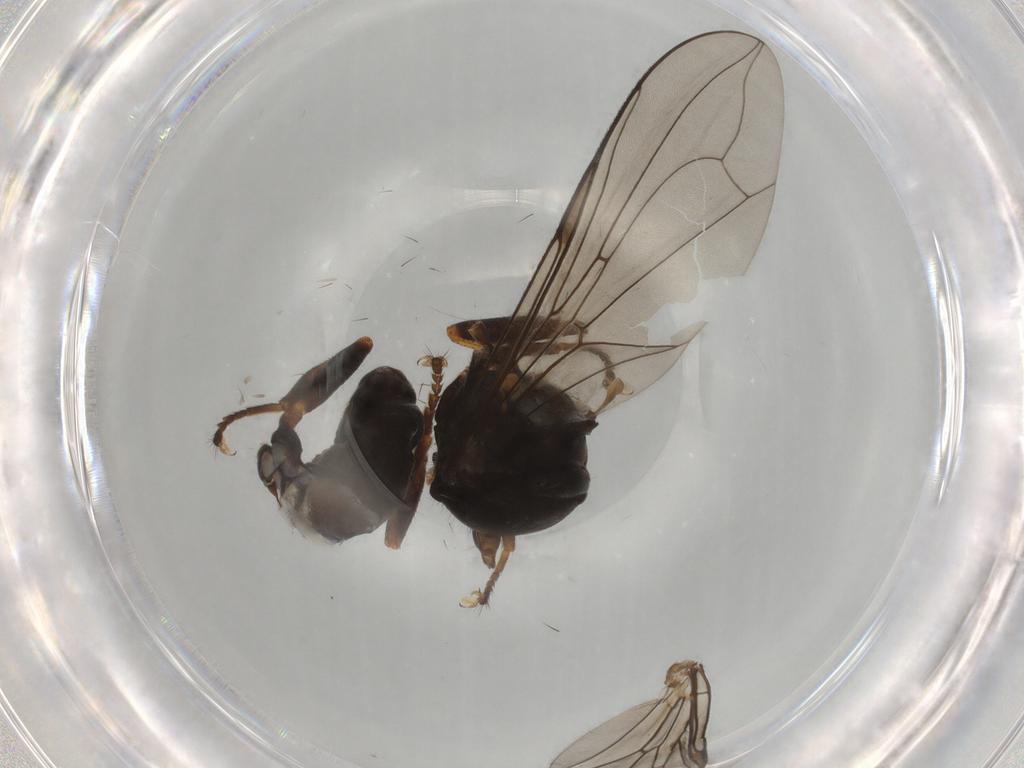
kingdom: Animalia
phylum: Arthropoda
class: Insecta
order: Diptera
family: Pipunculidae
